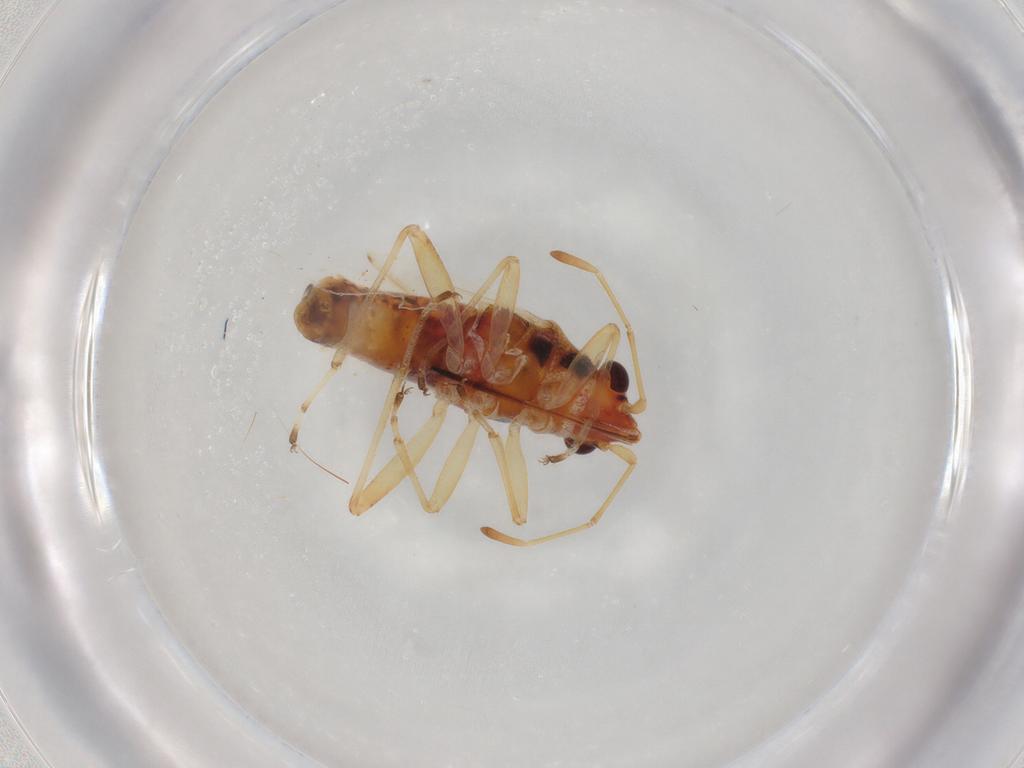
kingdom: Animalia
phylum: Arthropoda
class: Insecta
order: Hemiptera
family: Lygaeidae
